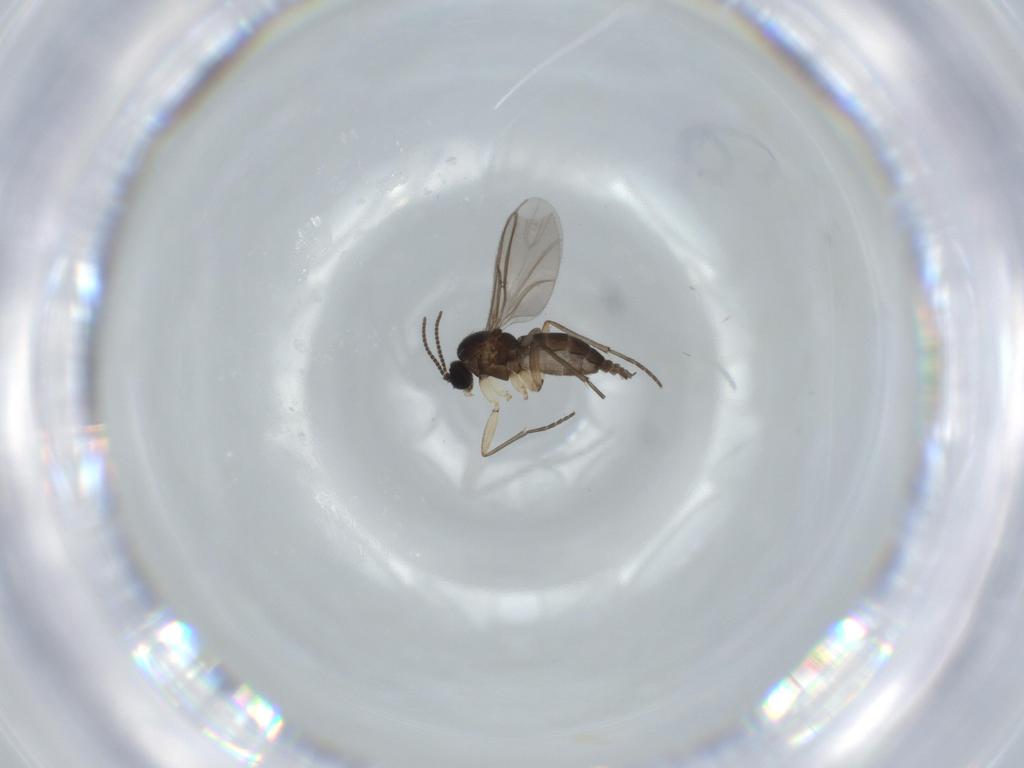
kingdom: Animalia
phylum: Arthropoda
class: Insecta
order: Diptera
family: Sciaridae
